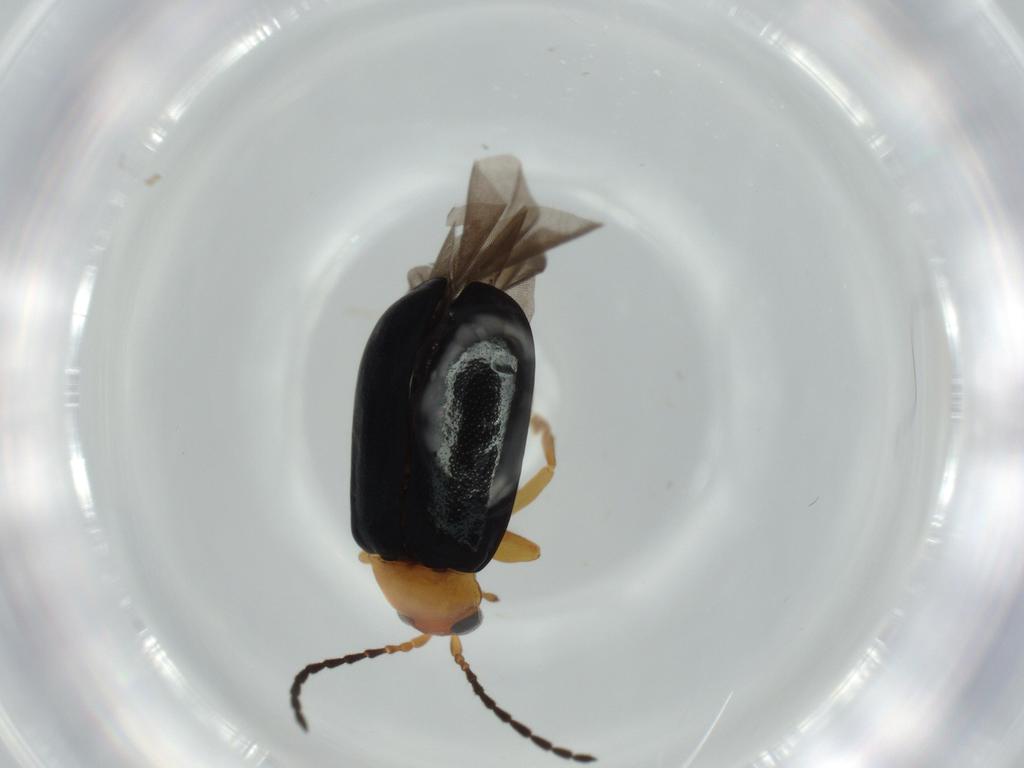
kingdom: Animalia
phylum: Arthropoda
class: Insecta
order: Coleoptera
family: Chrysomelidae
